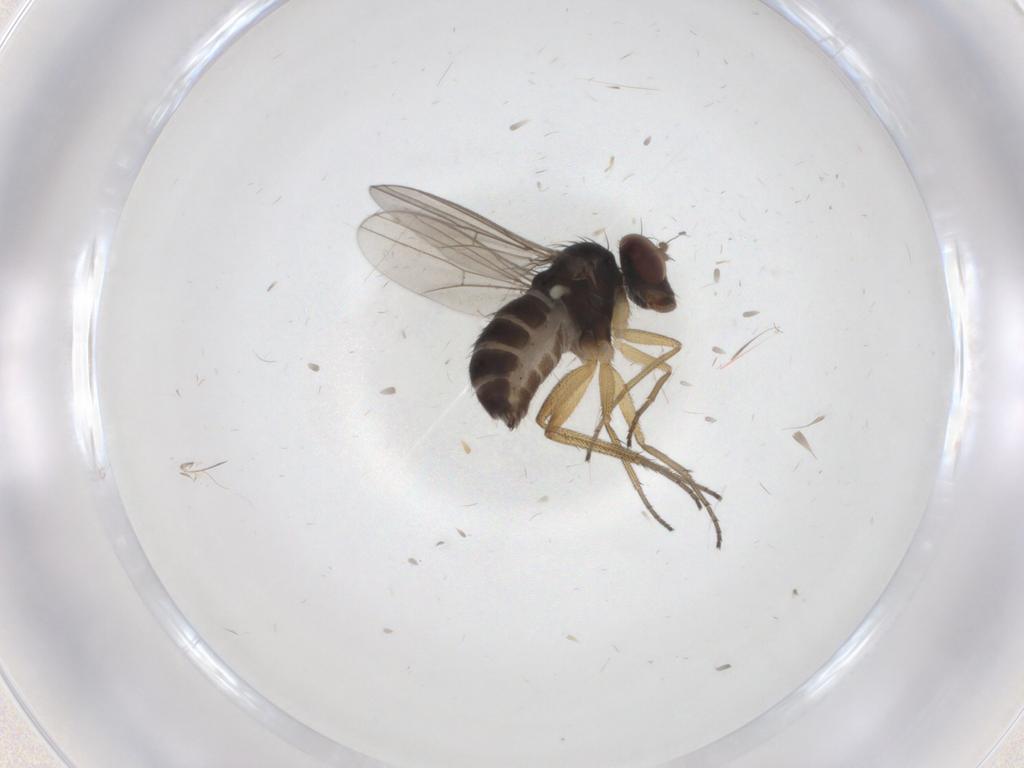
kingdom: Animalia
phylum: Arthropoda
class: Insecta
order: Diptera
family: Dolichopodidae
